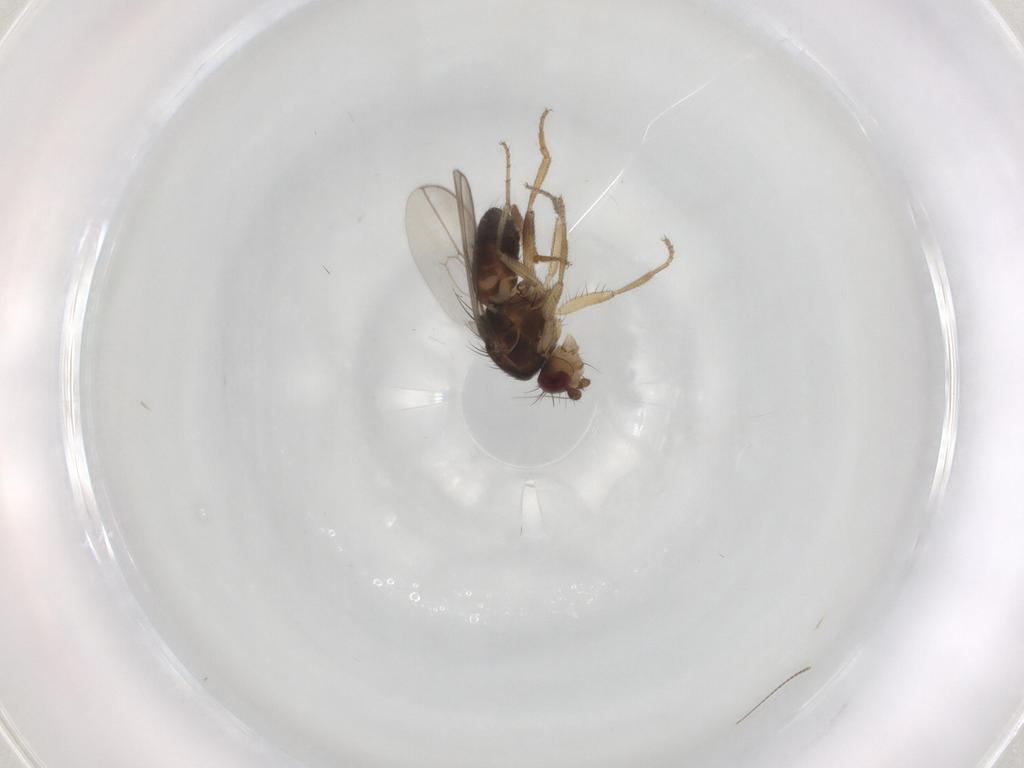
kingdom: Animalia
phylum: Arthropoda
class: Insecta
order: Diptera
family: Sphaeroceridae
